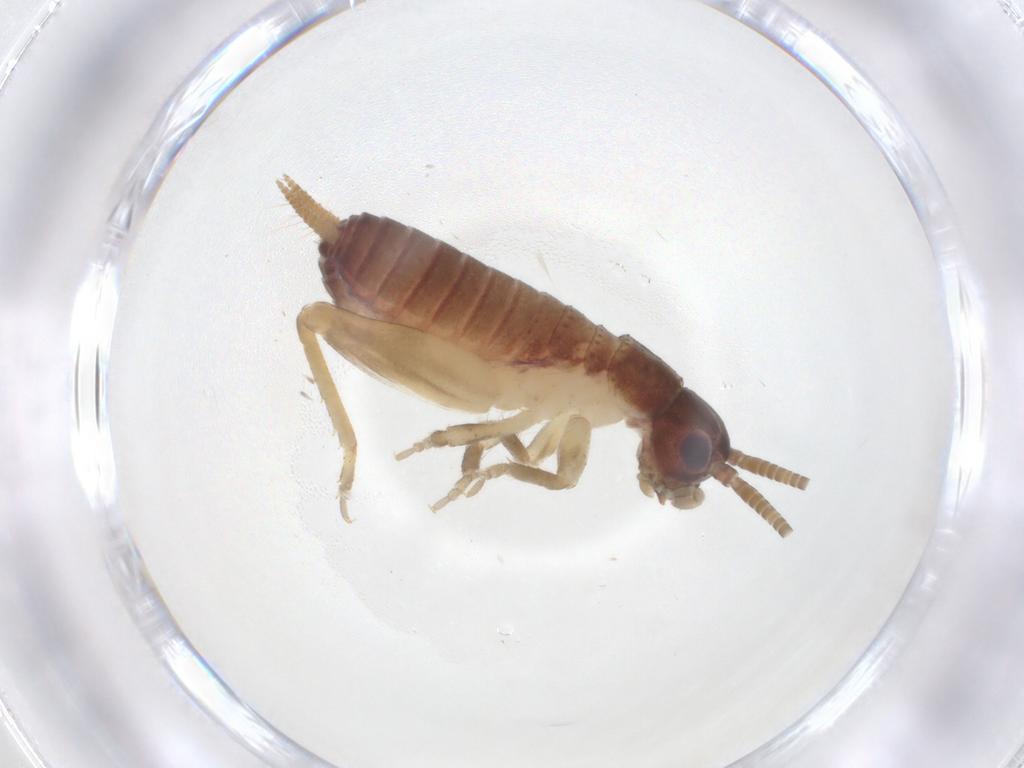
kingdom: Animalia
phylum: Arthropoda
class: Insecta
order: Orthoptera
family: Gryllidae
